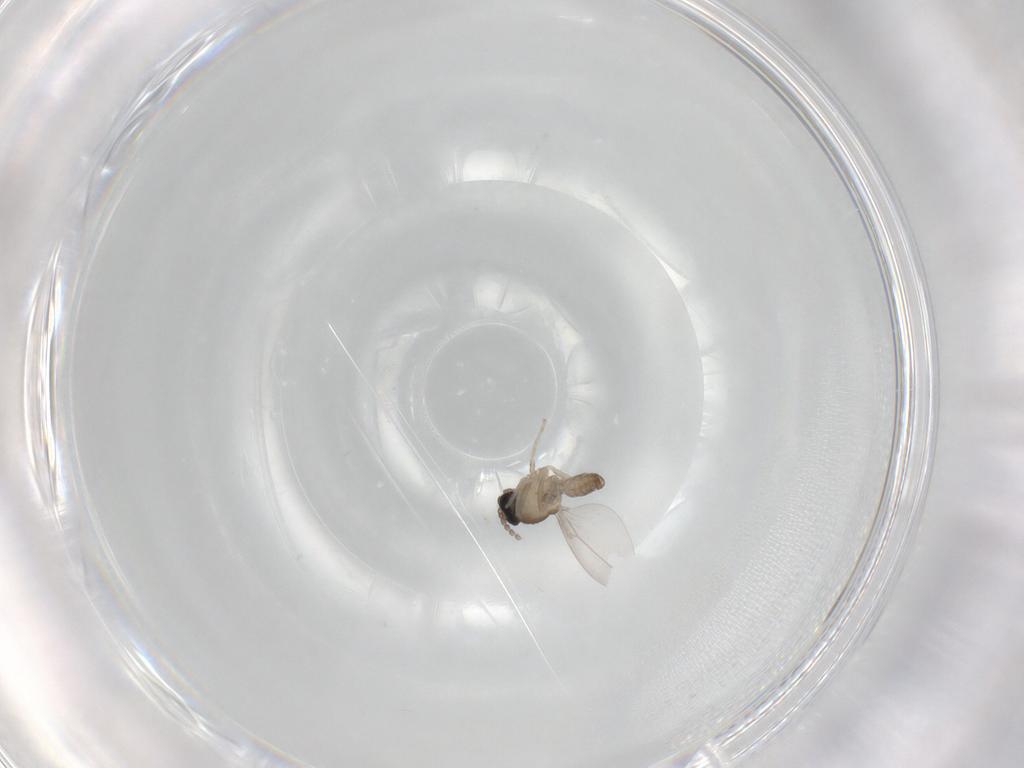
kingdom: Animalia
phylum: Arthropoda
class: Insecta
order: Diptera
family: Cecidomyiidae
